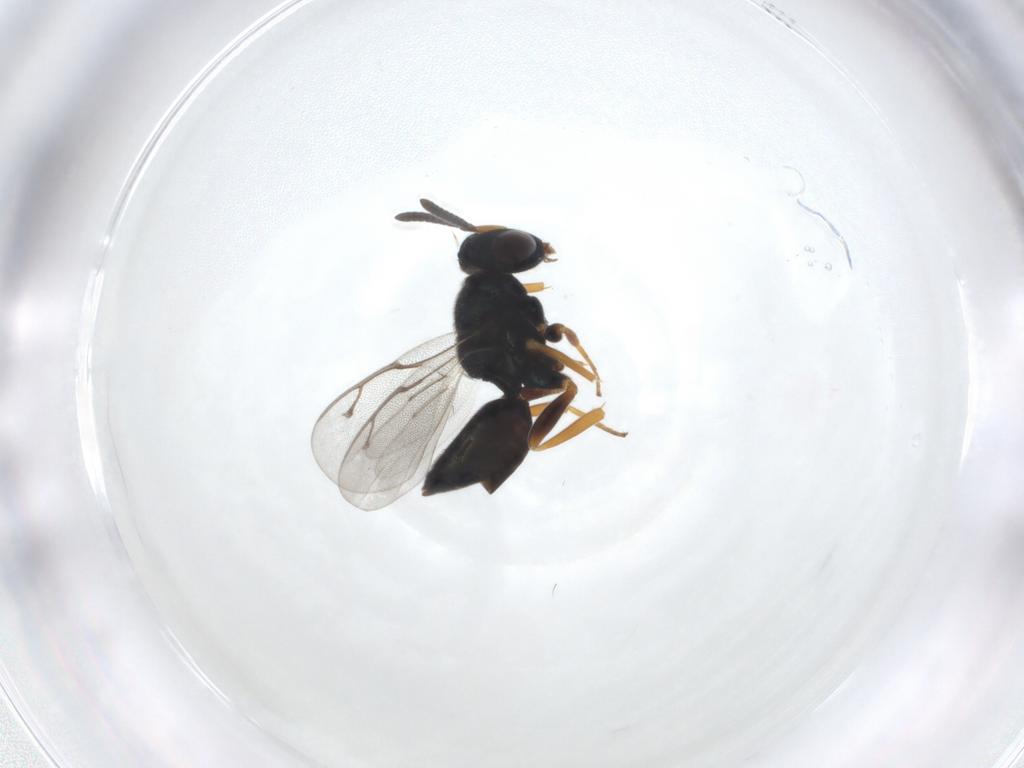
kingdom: Animalia
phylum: Arthropoda
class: Insecta
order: Hymenoptera
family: Pteromalidae
